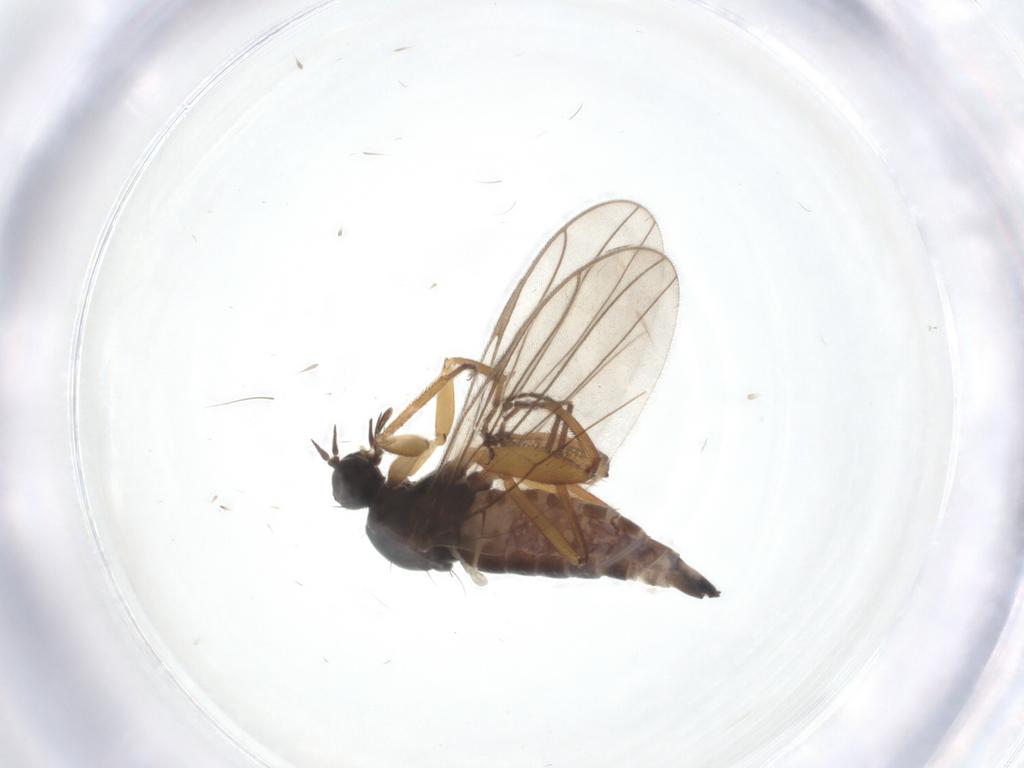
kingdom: Animalia
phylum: Arthropoda
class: Insecta
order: Diptera
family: Hybotidae
